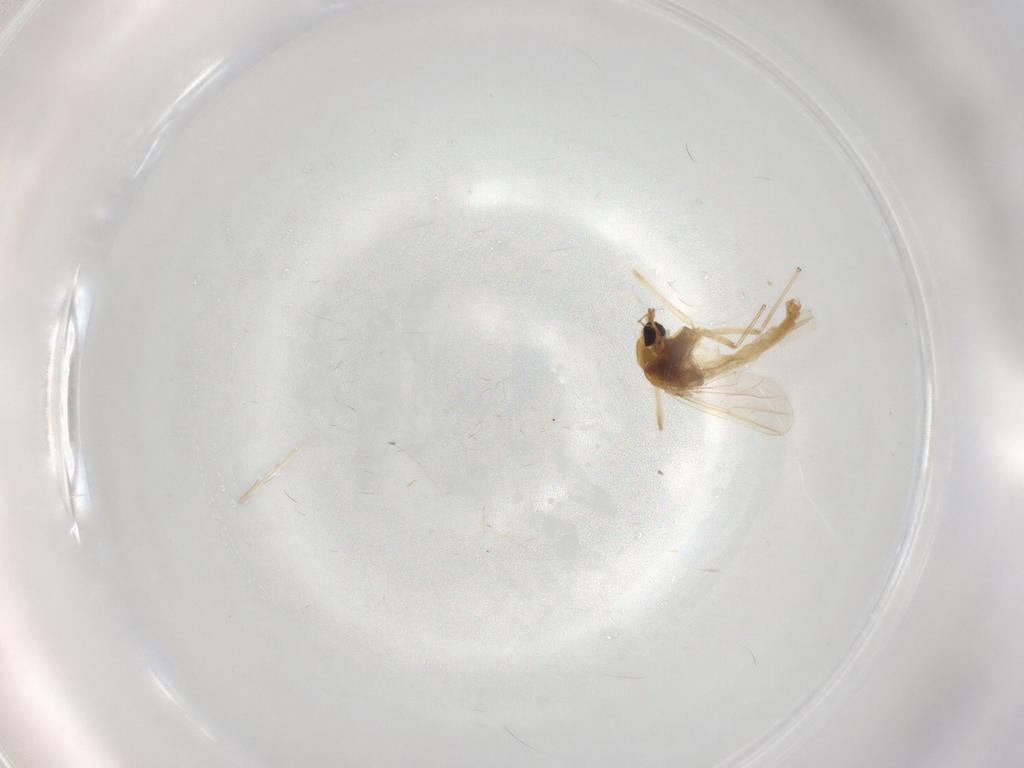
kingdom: Animalia
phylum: Arthropoda
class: Insecta
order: Diptera
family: Chironomidae
